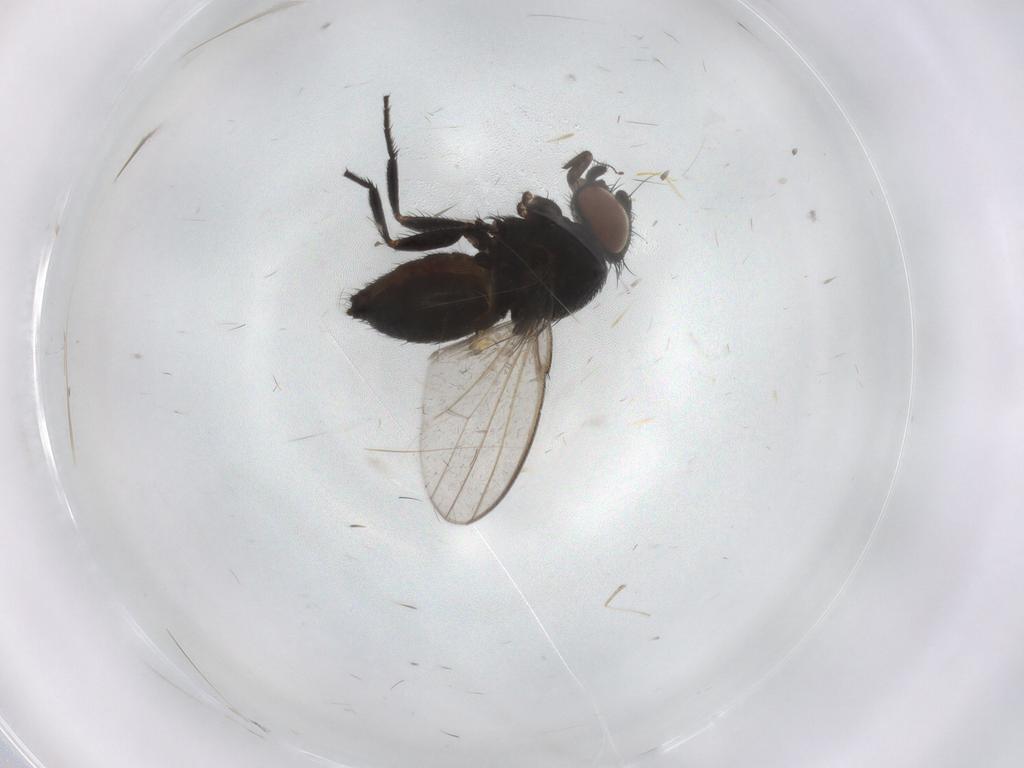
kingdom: Animalia
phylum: Arthropoda
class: Insecta
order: Diptera
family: Milichiidae
